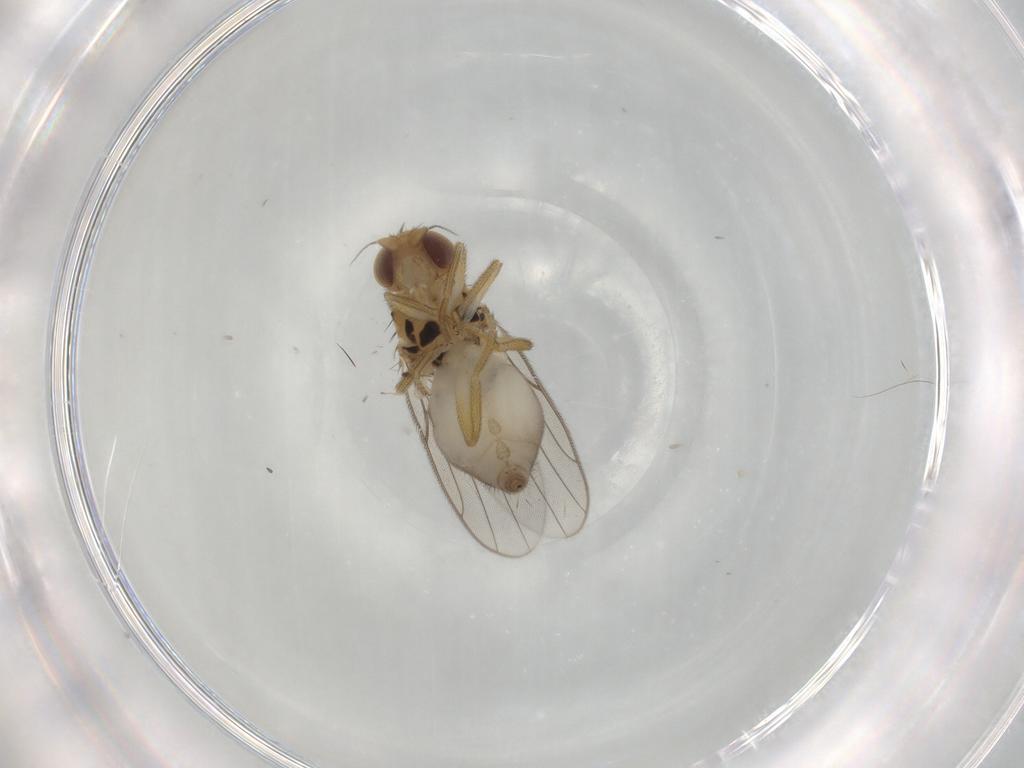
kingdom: Animalia
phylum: Arthropoda
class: Insecta
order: Diptera
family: Chloropidae
